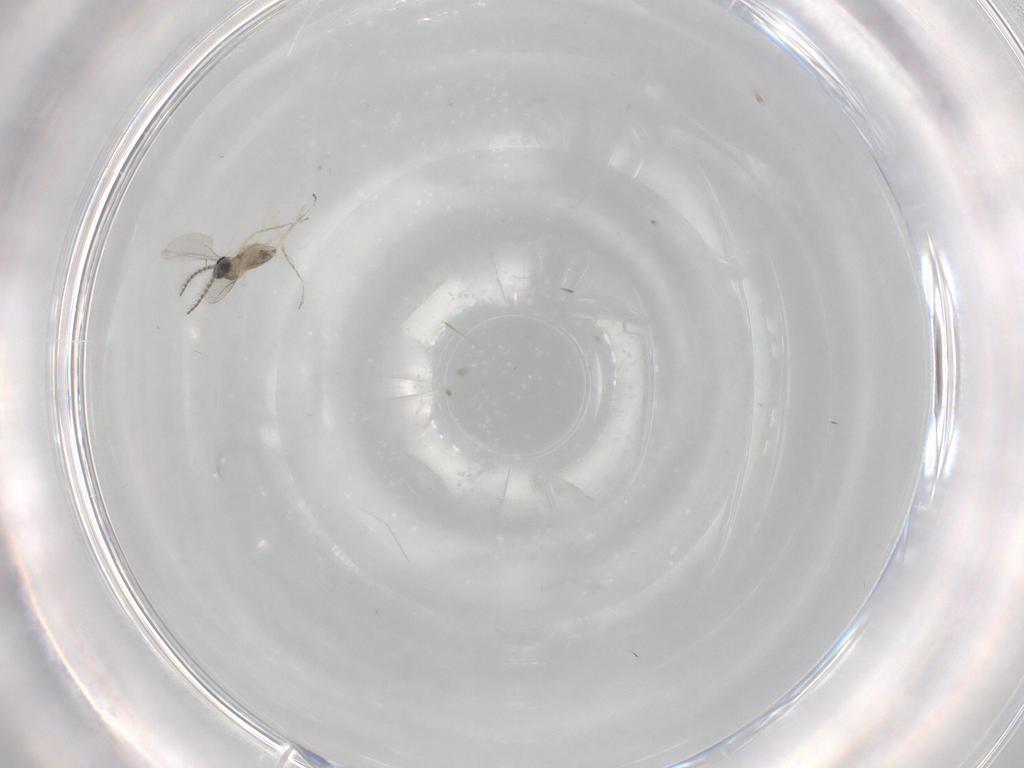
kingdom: Animalia
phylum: Arthropoda
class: Insecta
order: Diptera
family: Cecidomyiidae
